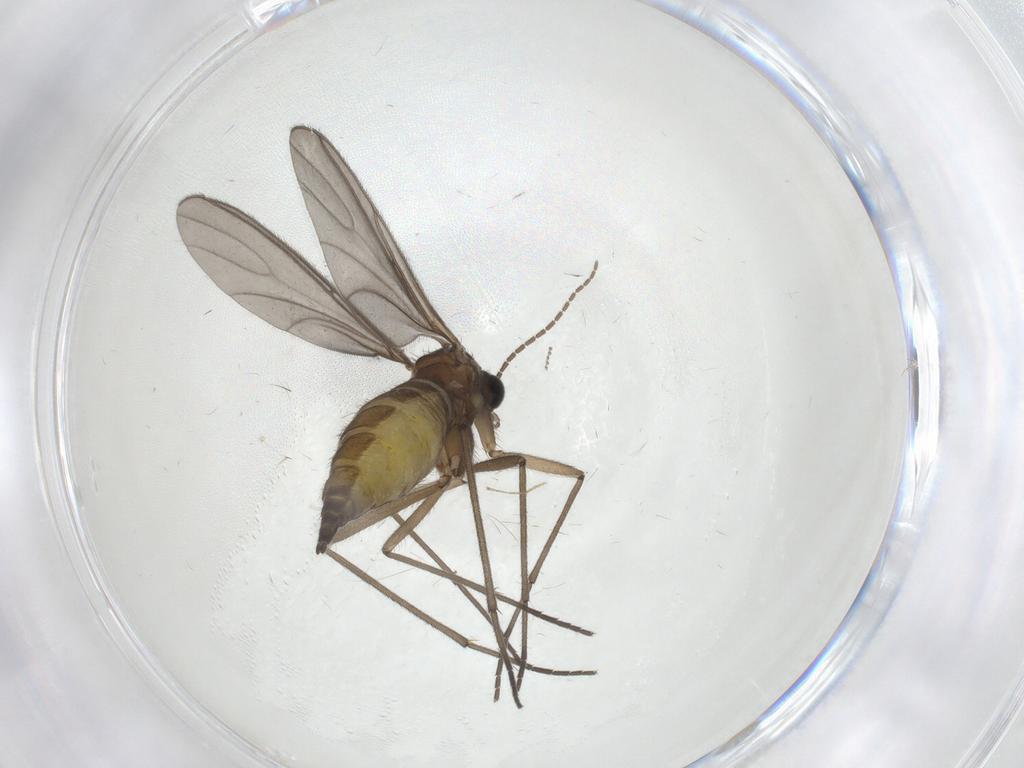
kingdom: Animalia
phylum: Arthropoda
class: Insecta
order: Diptera
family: Sciaridae
